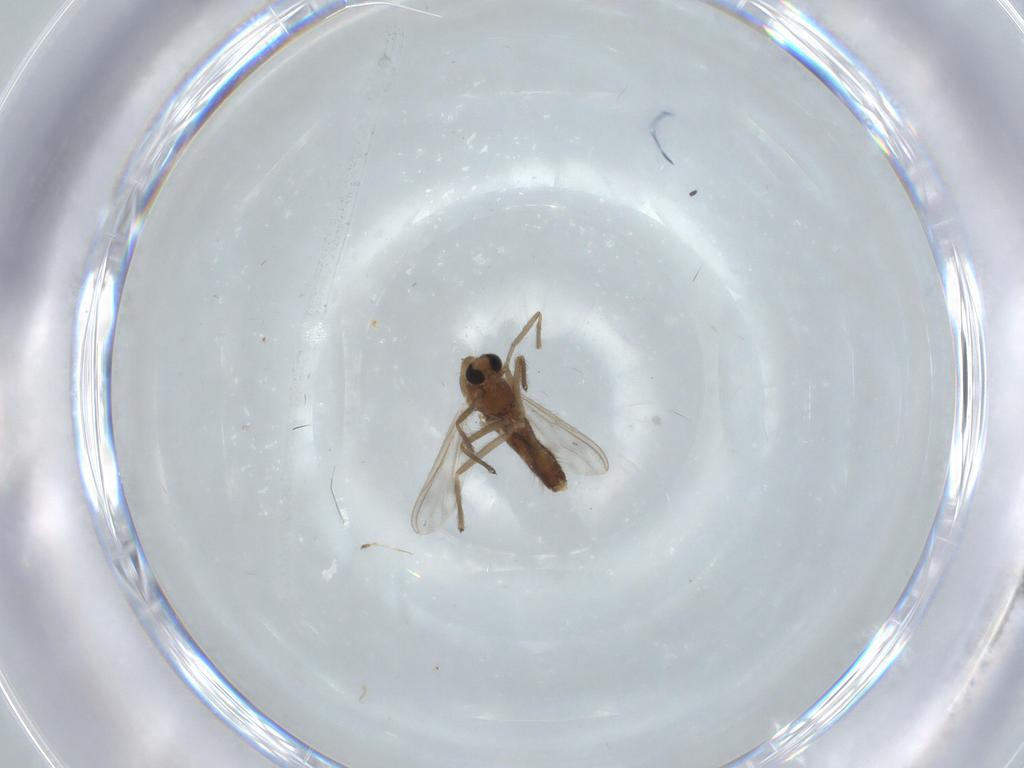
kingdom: Animalia
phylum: Arthropoda
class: Insecta
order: Diptera
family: Chironomidae
